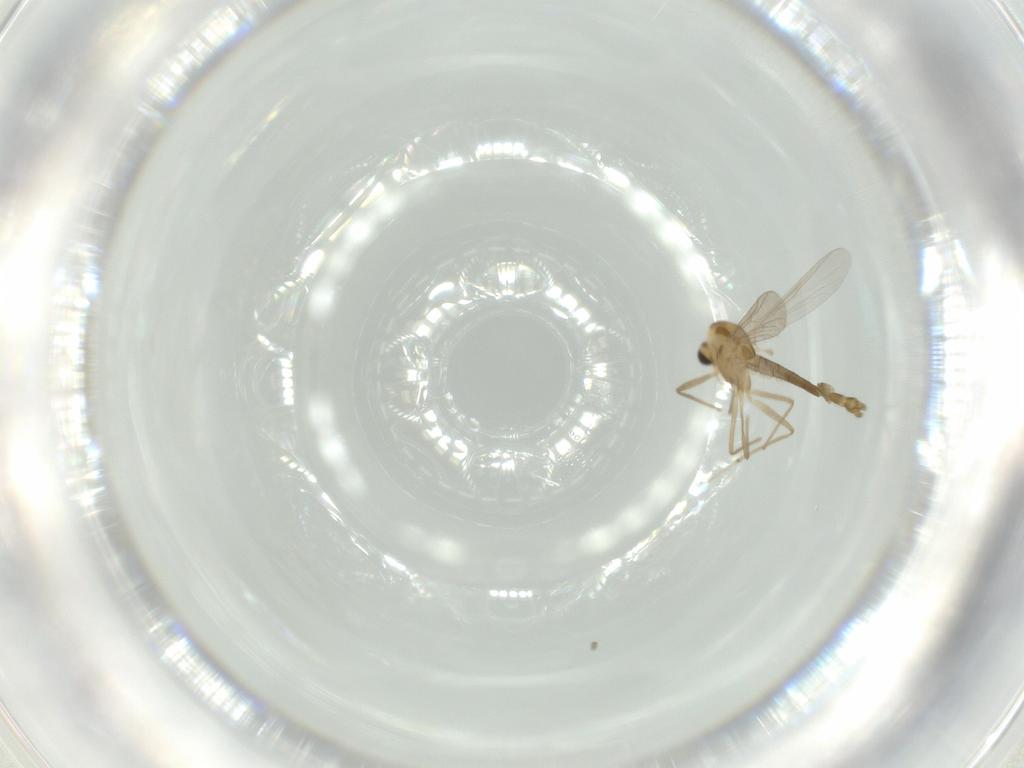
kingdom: Animalia
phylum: Arthropoda
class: Insecta
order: Diptera
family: Chironomidae
